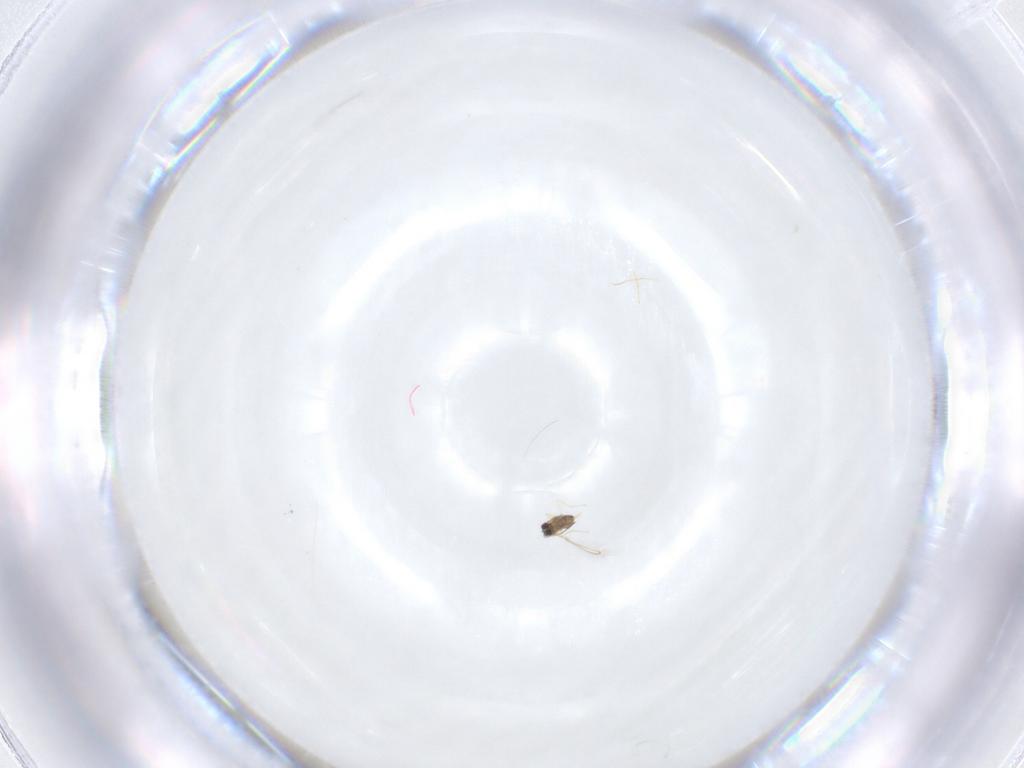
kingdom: Animalia
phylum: Arthropoda
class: Insecta
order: Hymenoptera
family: Mymaridae
